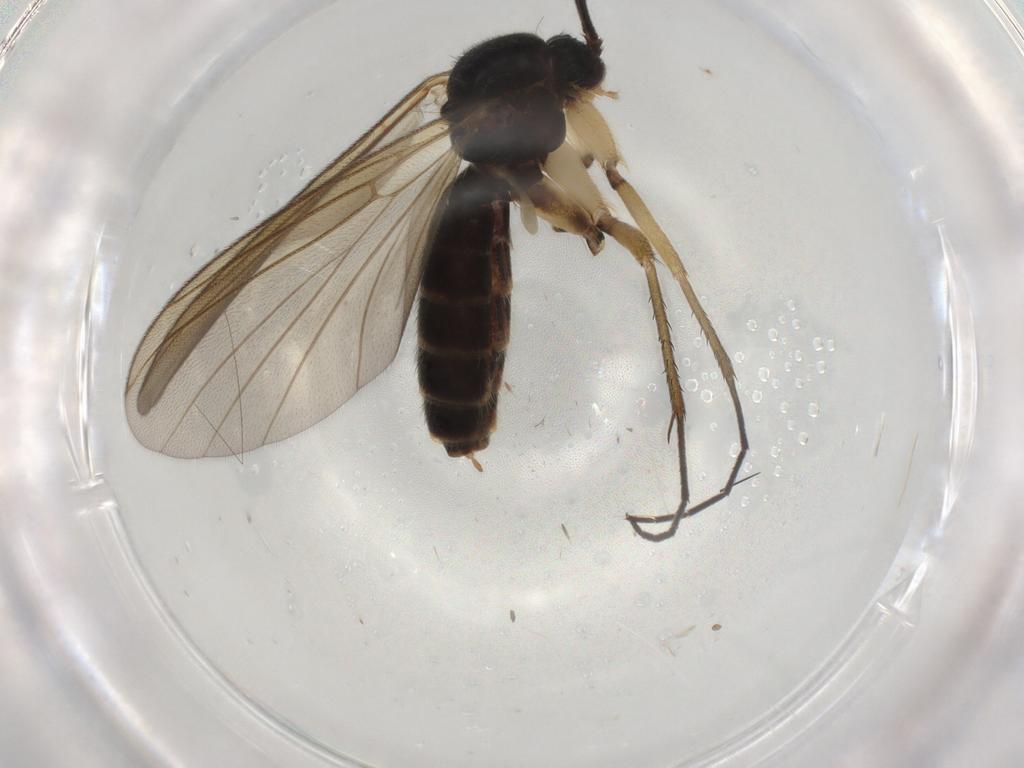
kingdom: Animalia
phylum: Arthropoda
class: Insecta
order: Diptera
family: Mycetophilidae
